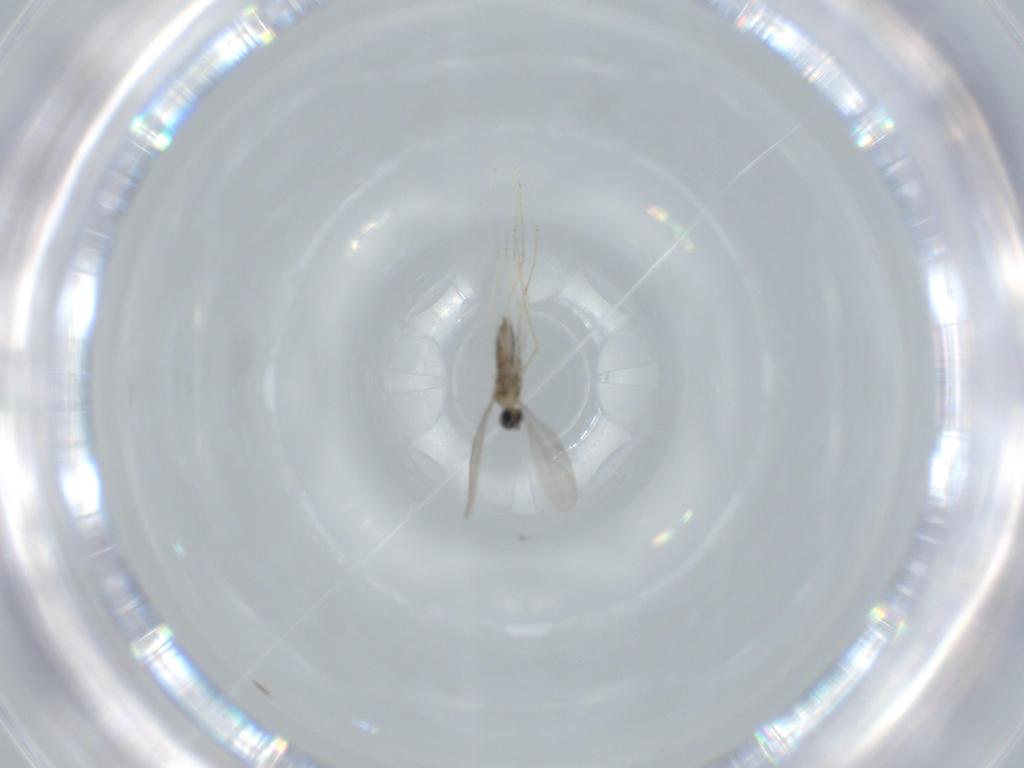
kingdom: Animalia
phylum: Arthropoda
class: Insecta
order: Diptera
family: Cecidomyiidae
